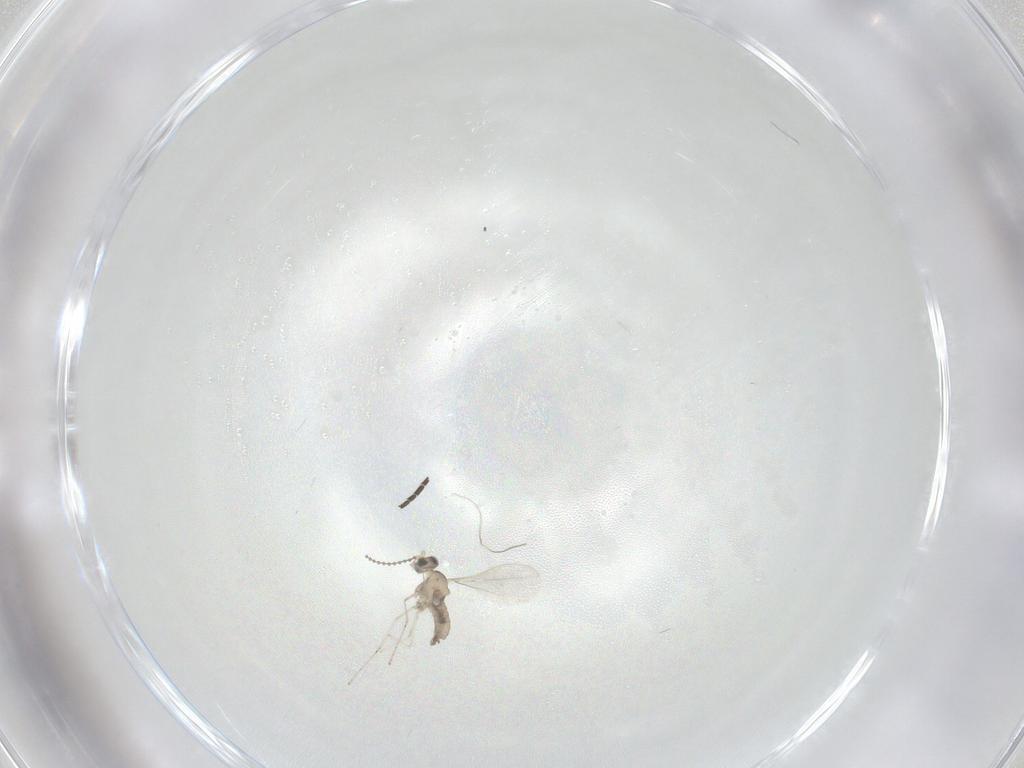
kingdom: Animalia
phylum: Arthropoda
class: Insecta
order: Diptera
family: Cecidomyiidae
